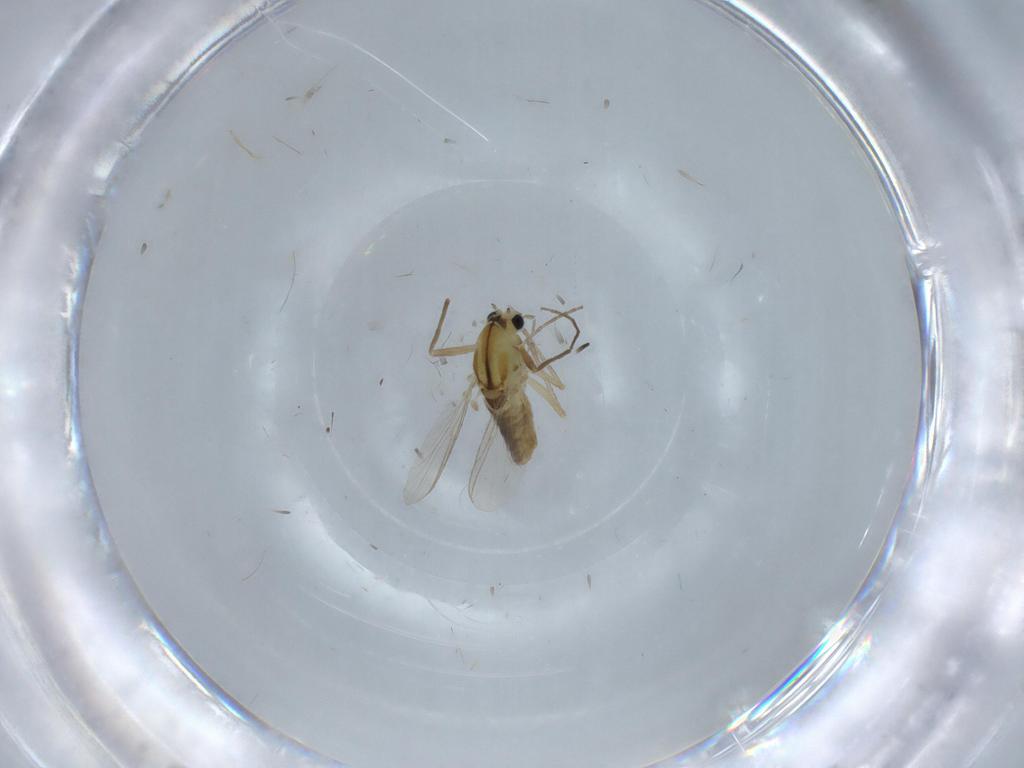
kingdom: Animalia
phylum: Arthropoda
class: Insecta
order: Diptera
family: Chironomidae
